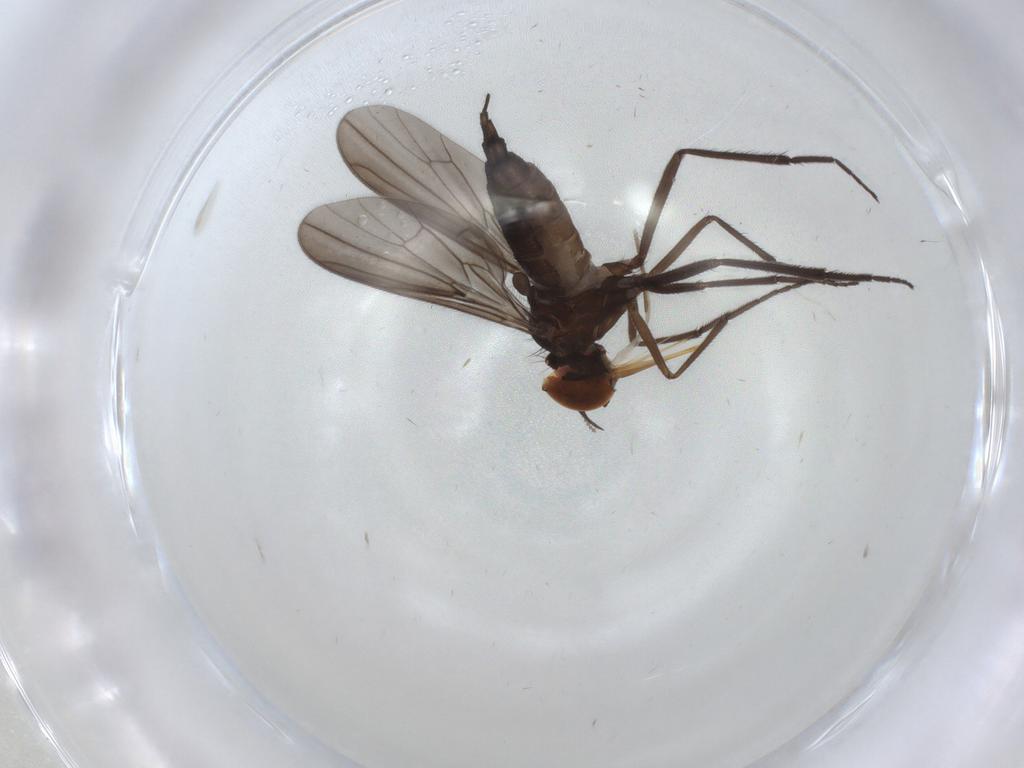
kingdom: Animalia
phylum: Arthropoda
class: Insecta
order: Diptera
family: Cecidomyiidae
